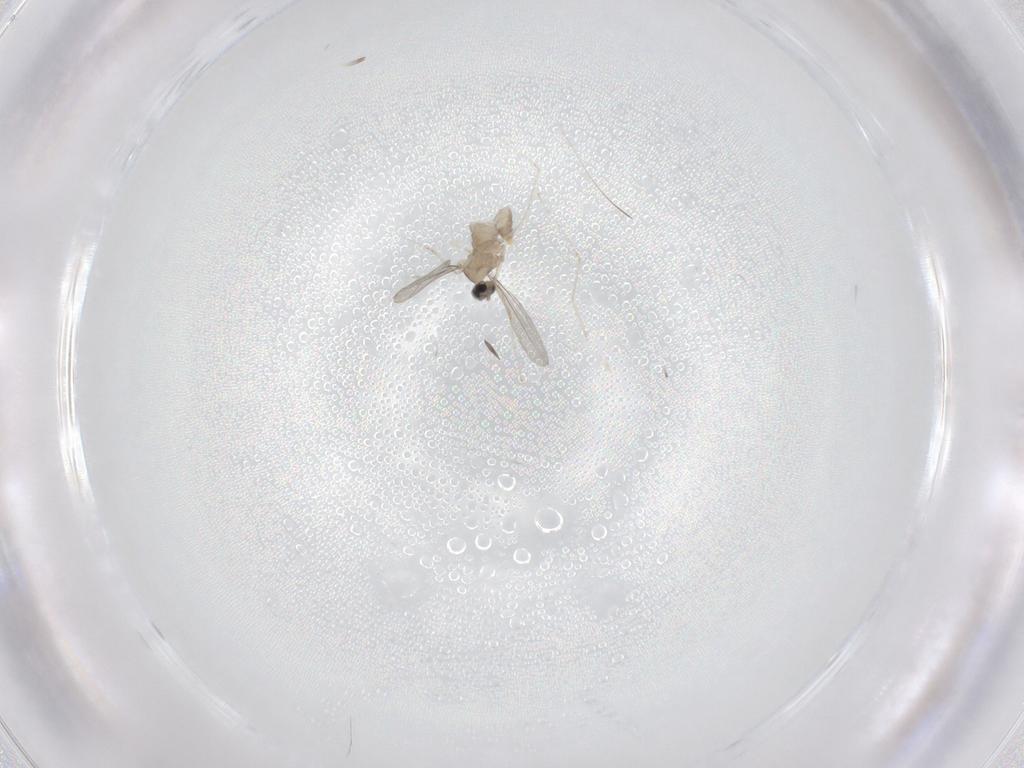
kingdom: Animalia
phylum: Arthropoda
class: Insecta
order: Diptera
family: Cecidomyiidae
